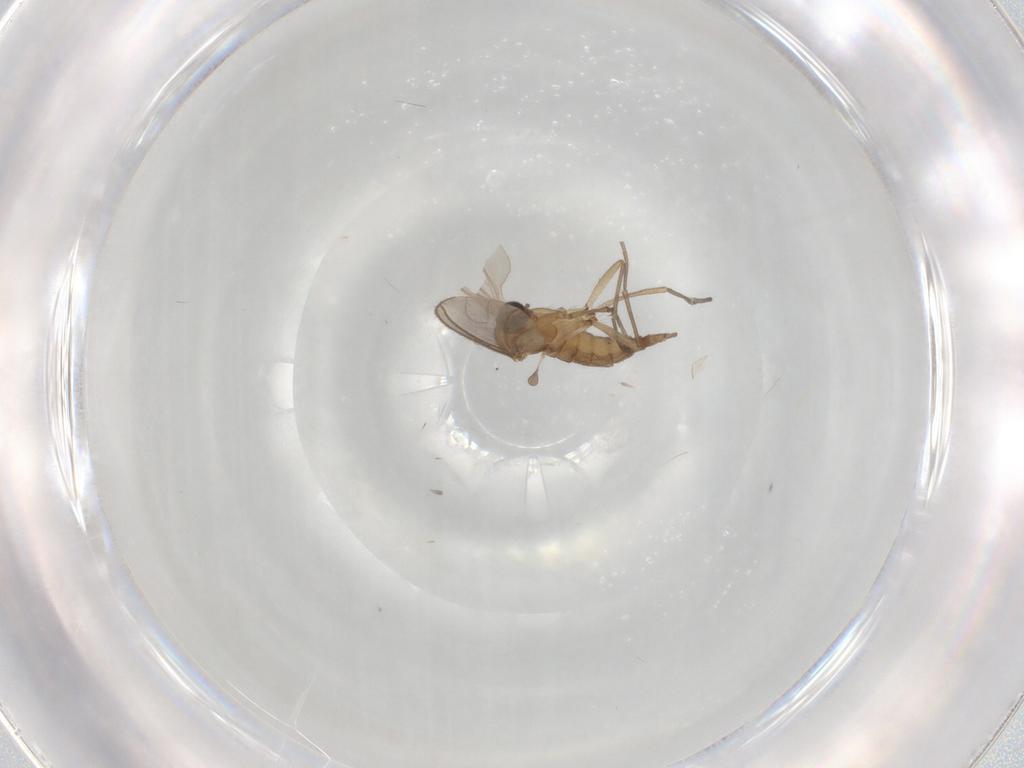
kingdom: Animalia
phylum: Arthropoda
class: Insecta
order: Diptera
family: Sciaridae
